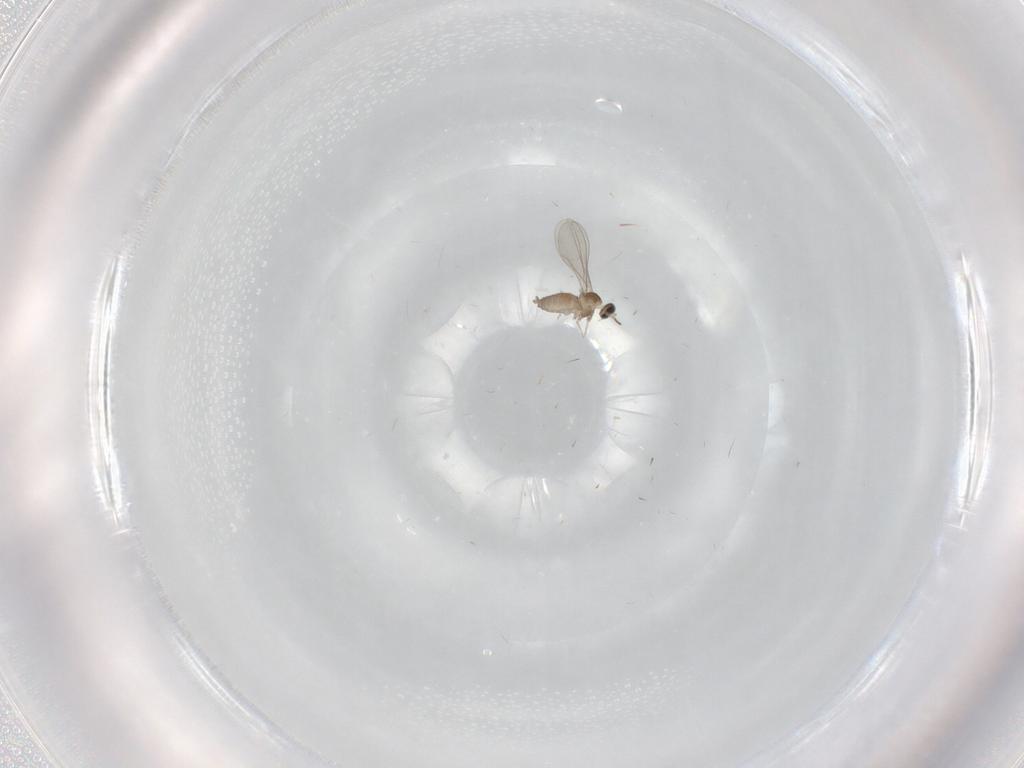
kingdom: Animalia
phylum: Arthropoda
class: Insecta
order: Diptera
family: Cecidomyiidae
